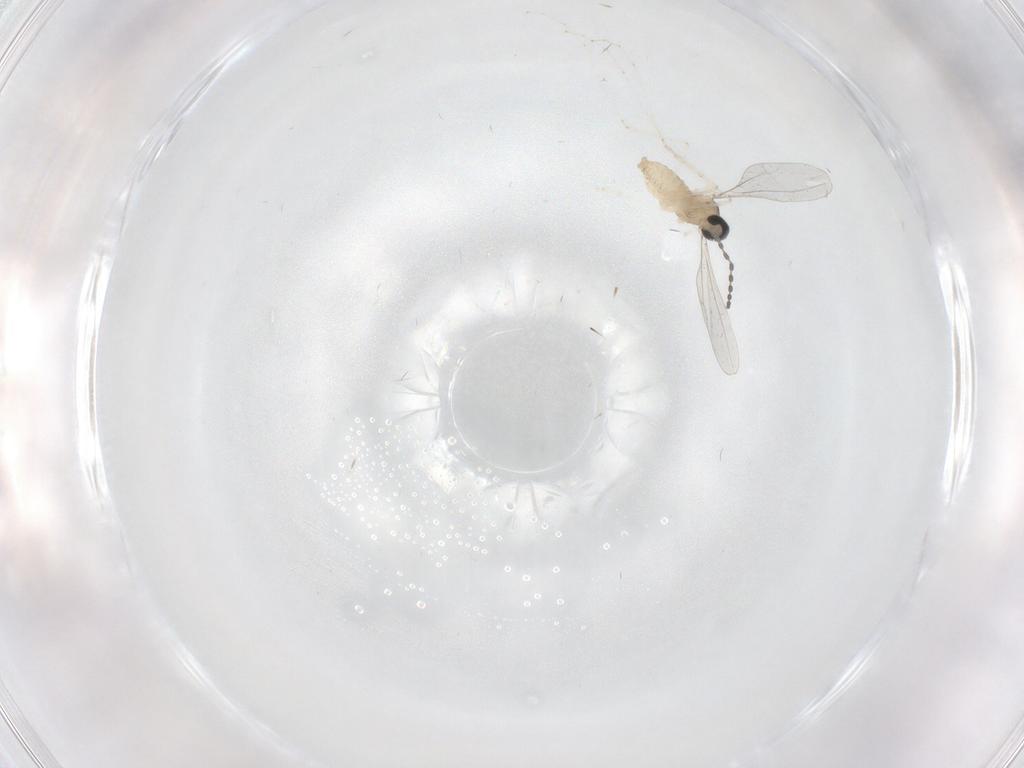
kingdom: Animalia
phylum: Arthropoda
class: Insecta
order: Diptera
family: Cecidomyiidae
